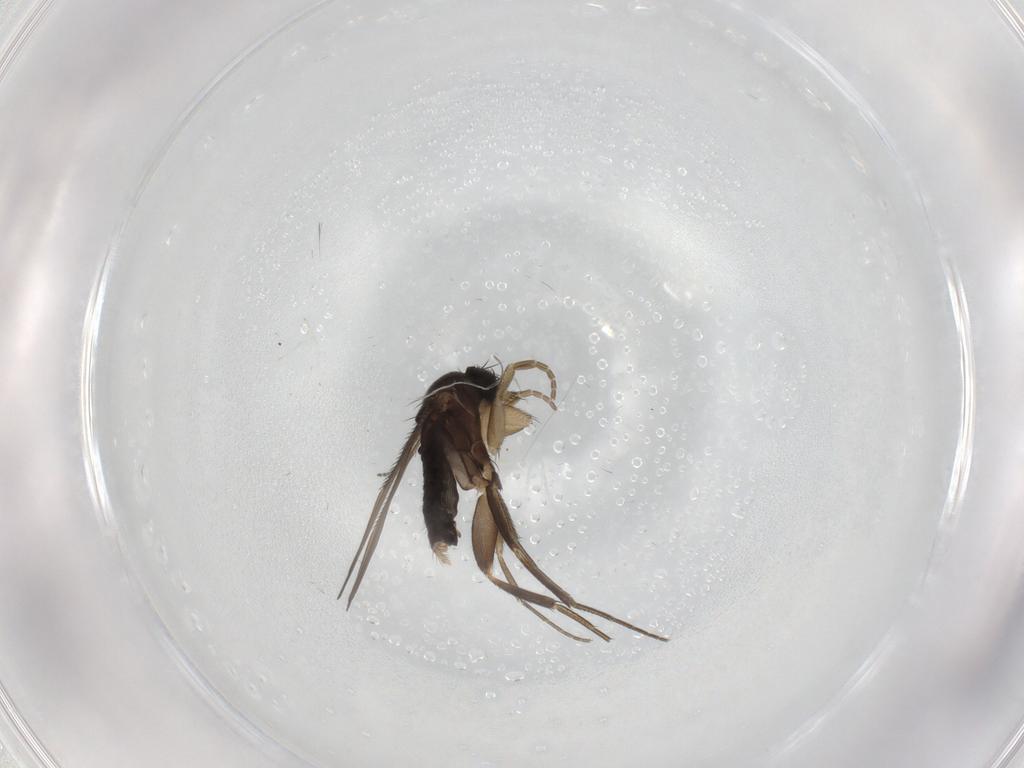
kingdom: Animalia
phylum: Arthropoda
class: Insecta
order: Diptera
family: Phoridae
